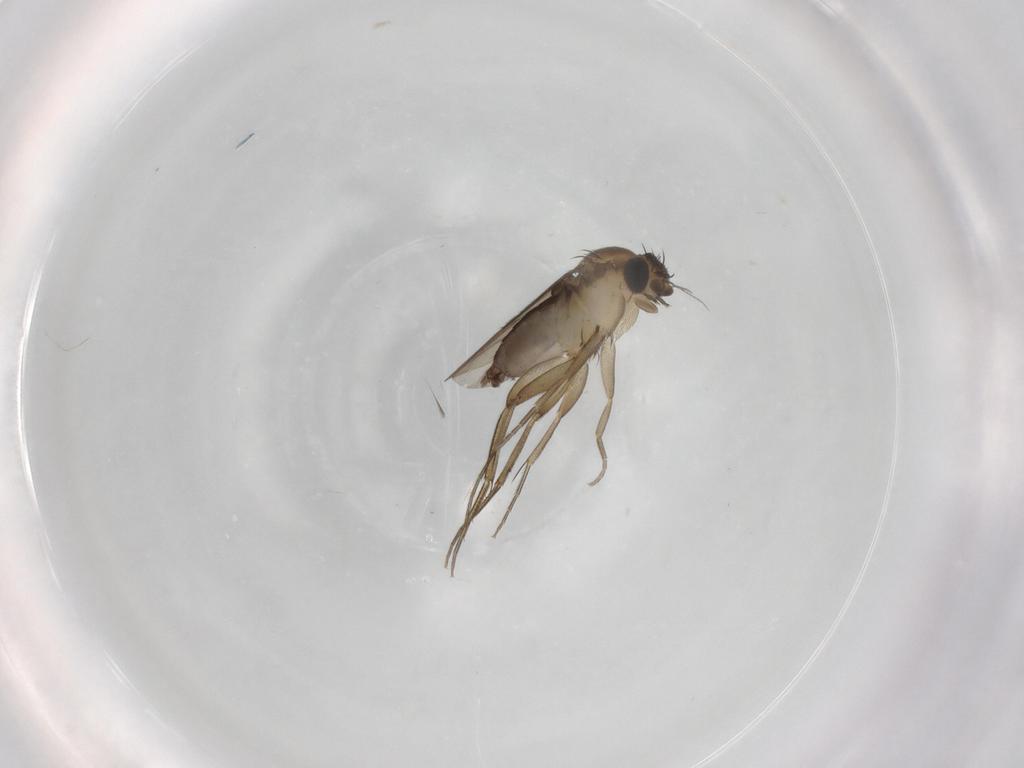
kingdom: Animalia
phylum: Arthropoda
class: Insecta
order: Diptera
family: Phoridae
